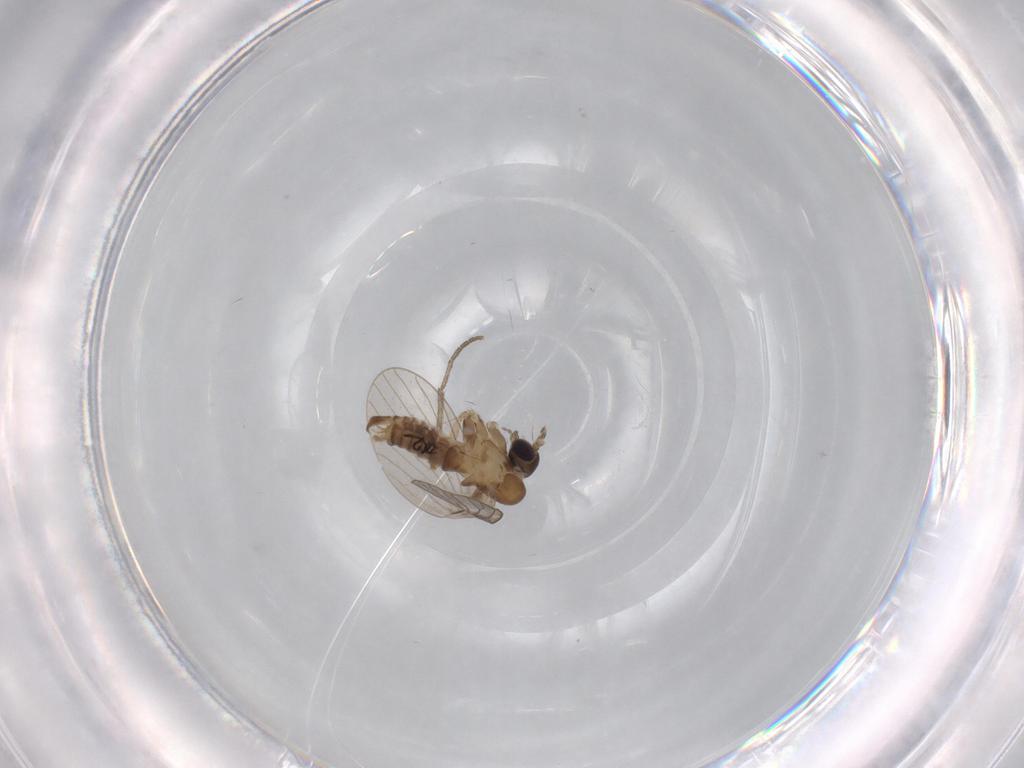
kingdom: Animalia
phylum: Arthropoda
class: Insecta
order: Diptera
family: Psychodidae
